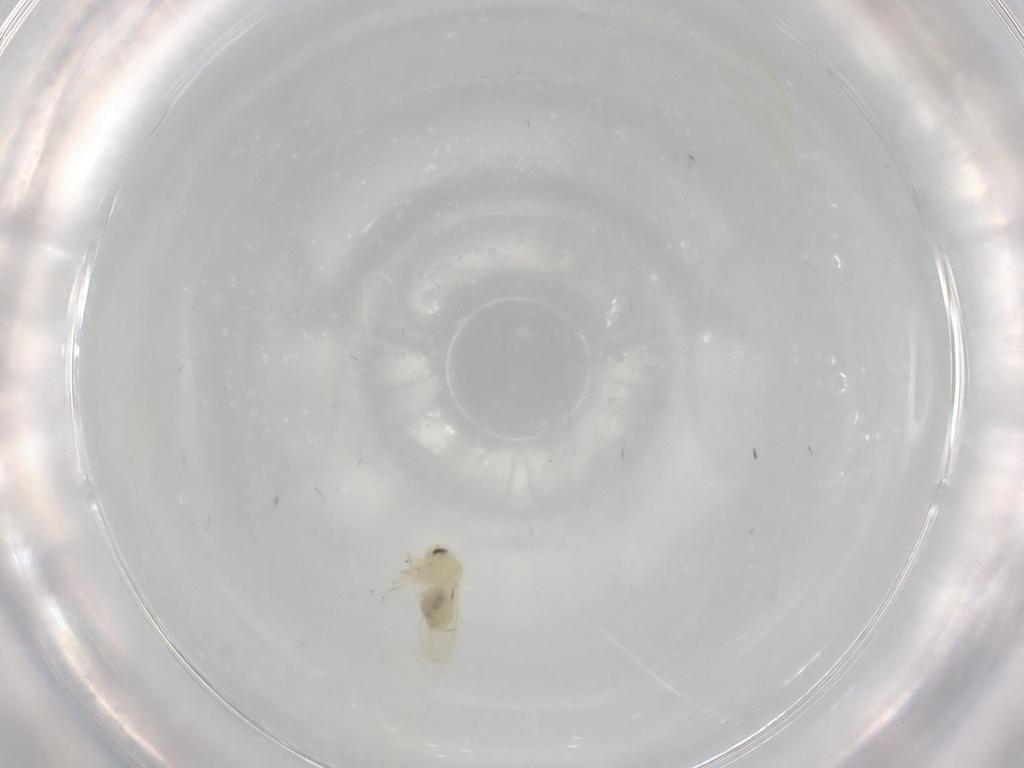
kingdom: Animalia
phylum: Arthropoda
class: Insecta
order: Hemiptera
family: Aleyrodidae
